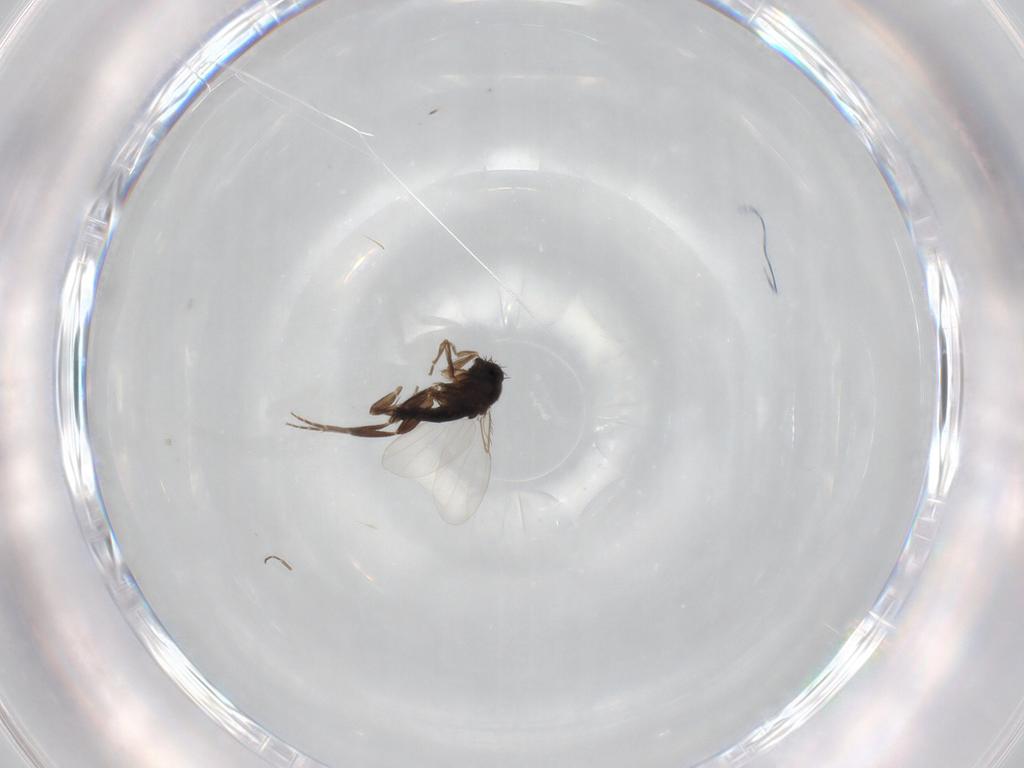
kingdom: Animalia
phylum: Arthropoda
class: Insecta
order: Diptera
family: Phoridae
